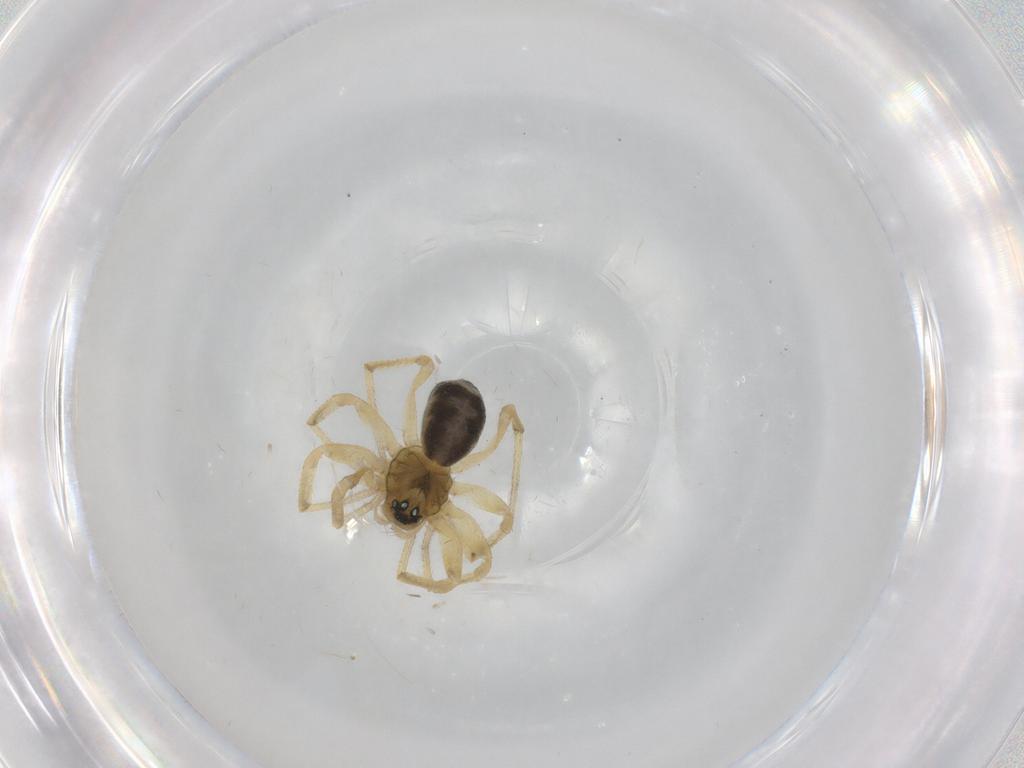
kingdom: Animalia
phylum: Arthropoda
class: Arachnida
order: Araneae
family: Linyphiidae
